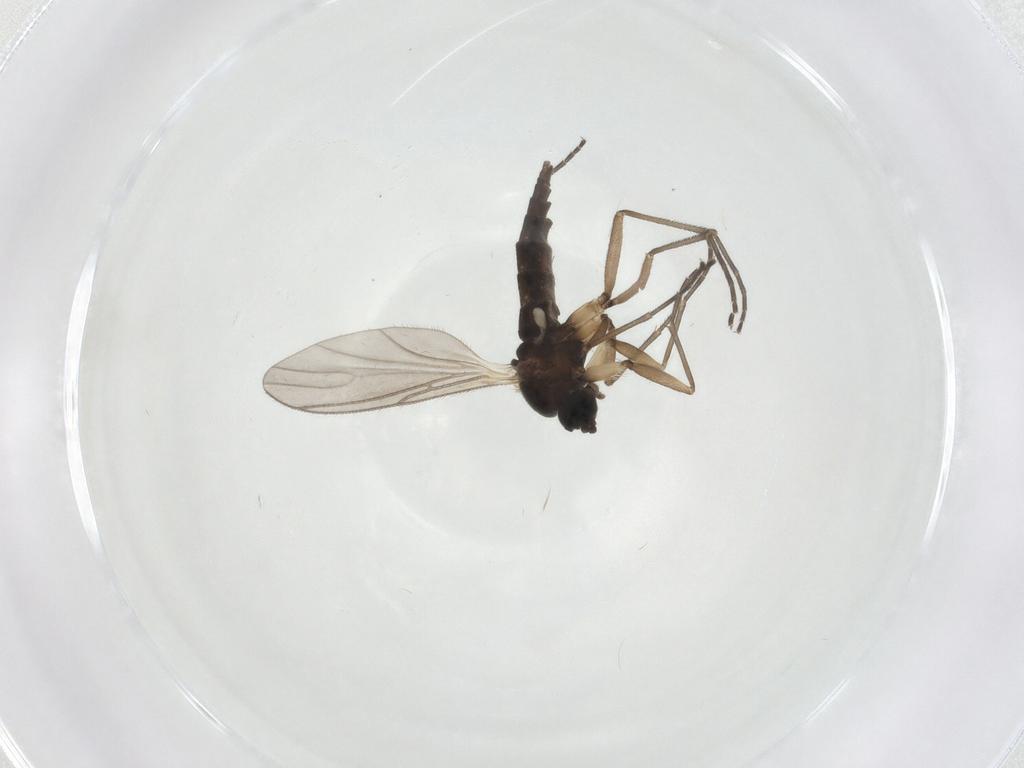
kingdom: Animalia
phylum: Arthropoda
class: Insecta
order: Diptera
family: Sciaridae
